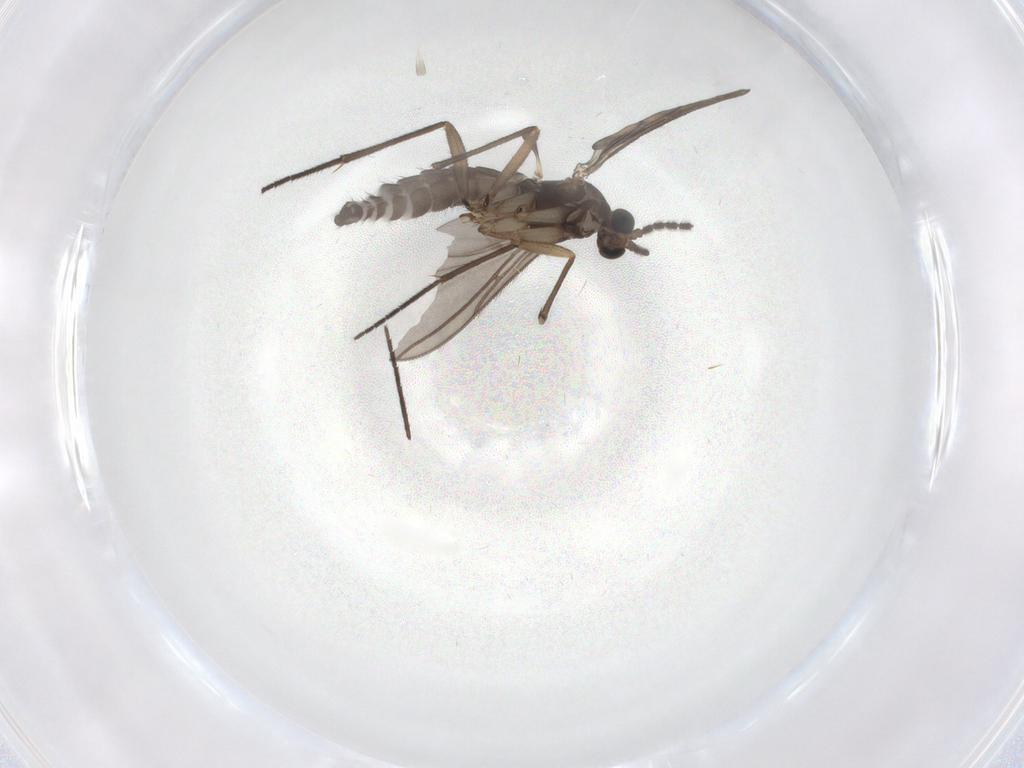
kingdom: Animalia
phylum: Arthropoda
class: Insecta
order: Diptera
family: Sciaridae
